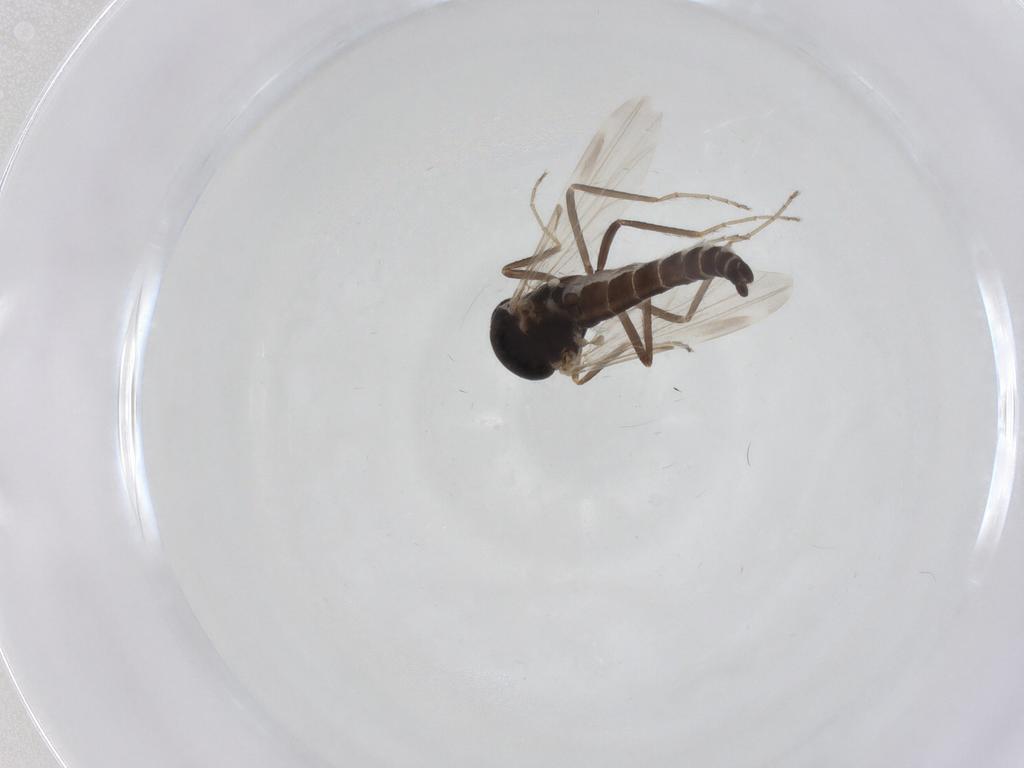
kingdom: Animalia
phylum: Arthropoda
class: Insecta
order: Diptera
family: Ceratopogonidae
